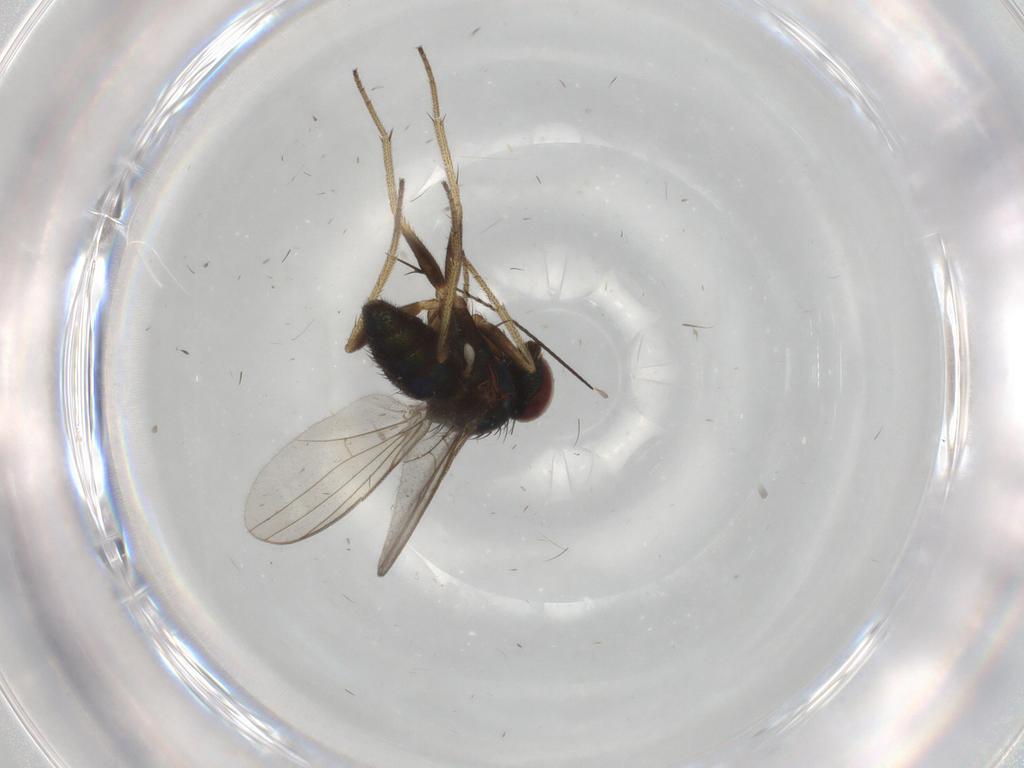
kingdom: Animalia
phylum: Arthropoda
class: Insecta
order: Diptera
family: Dolichopodidae
